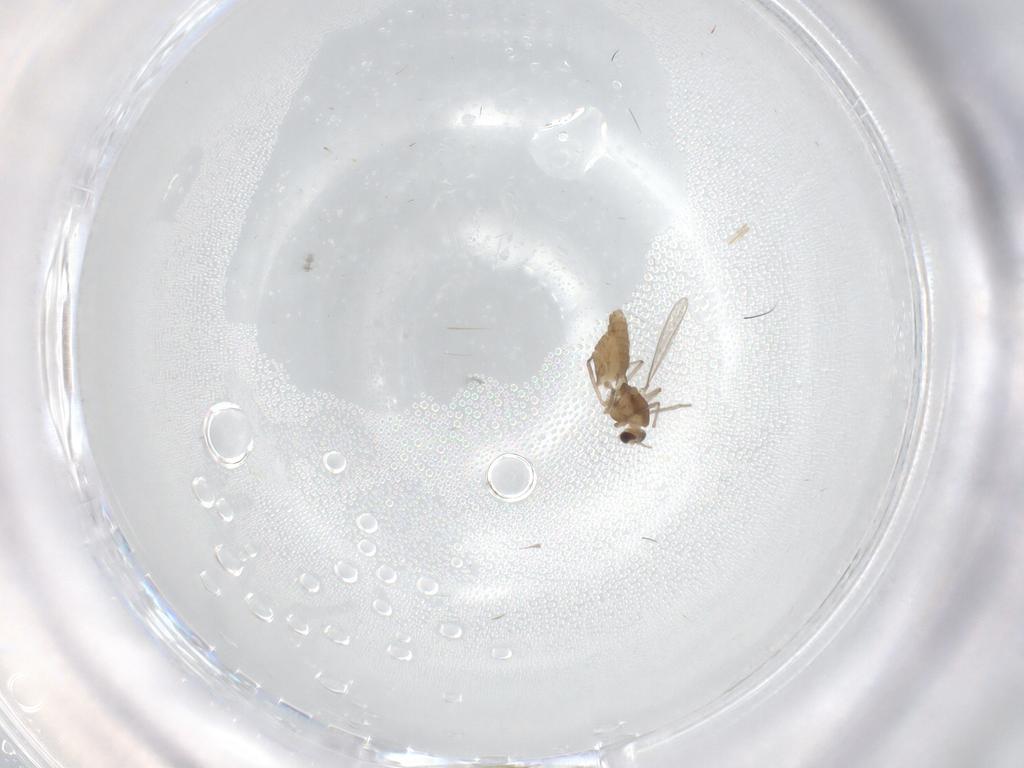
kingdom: Animalia
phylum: Arthropoda
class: Insecta
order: Diptera
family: Chironomidae
